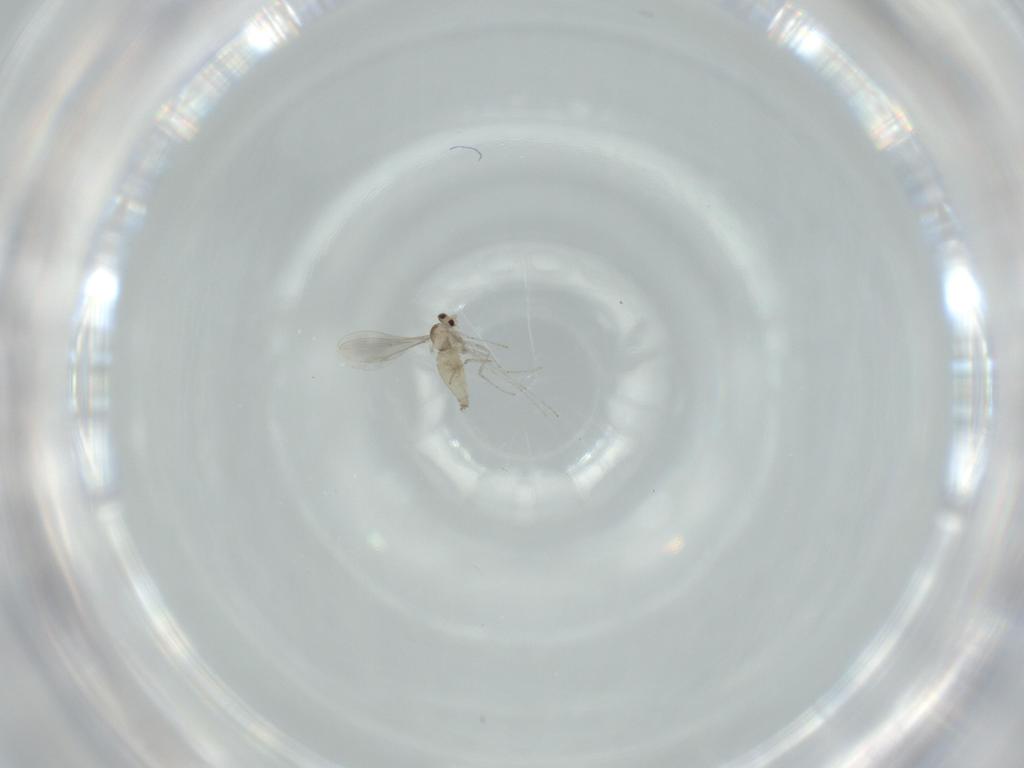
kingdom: Animalia
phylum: Arthropoda
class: Insecta
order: Diptera
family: Cecidomyiidae
